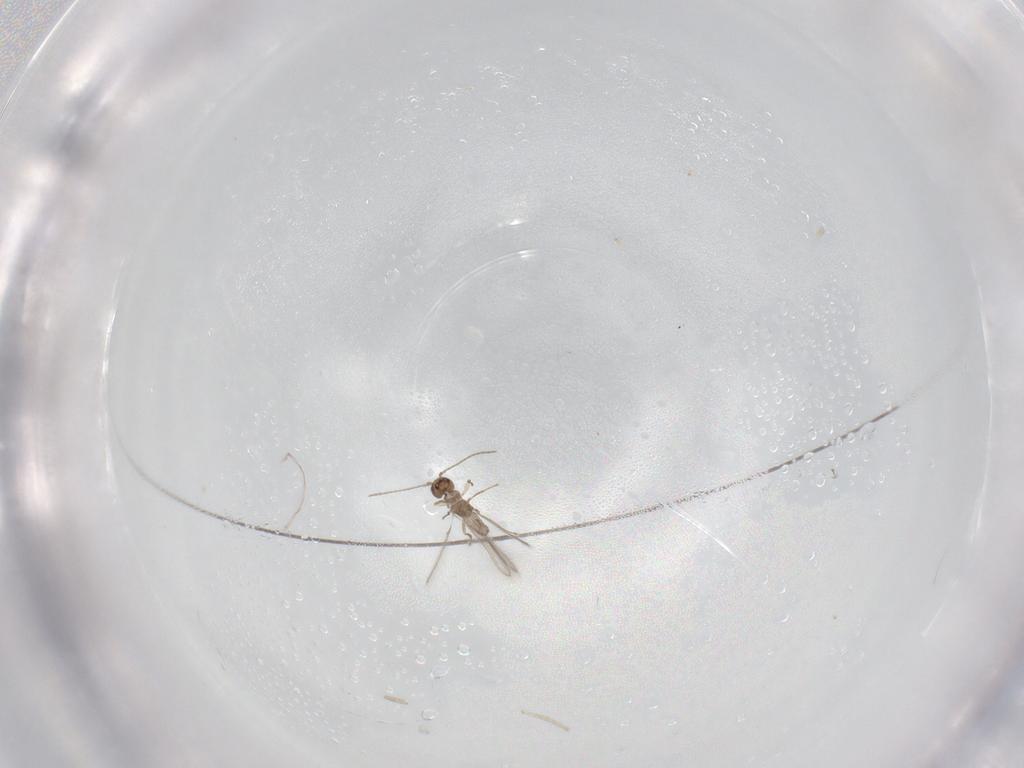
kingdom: Animalia
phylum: Arthropoda
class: Insecta
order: Hymenoptera
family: Mymaridae
